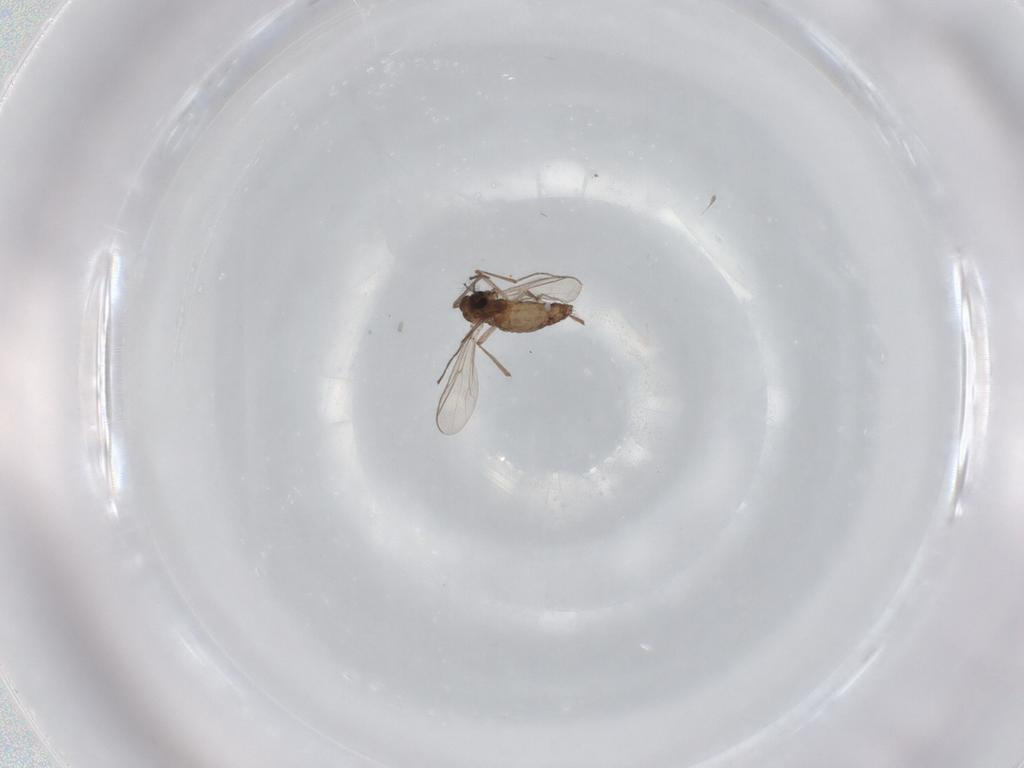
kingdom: Animalia
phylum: Arthropoda
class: Insecta
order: Diptera
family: Chironomidae
